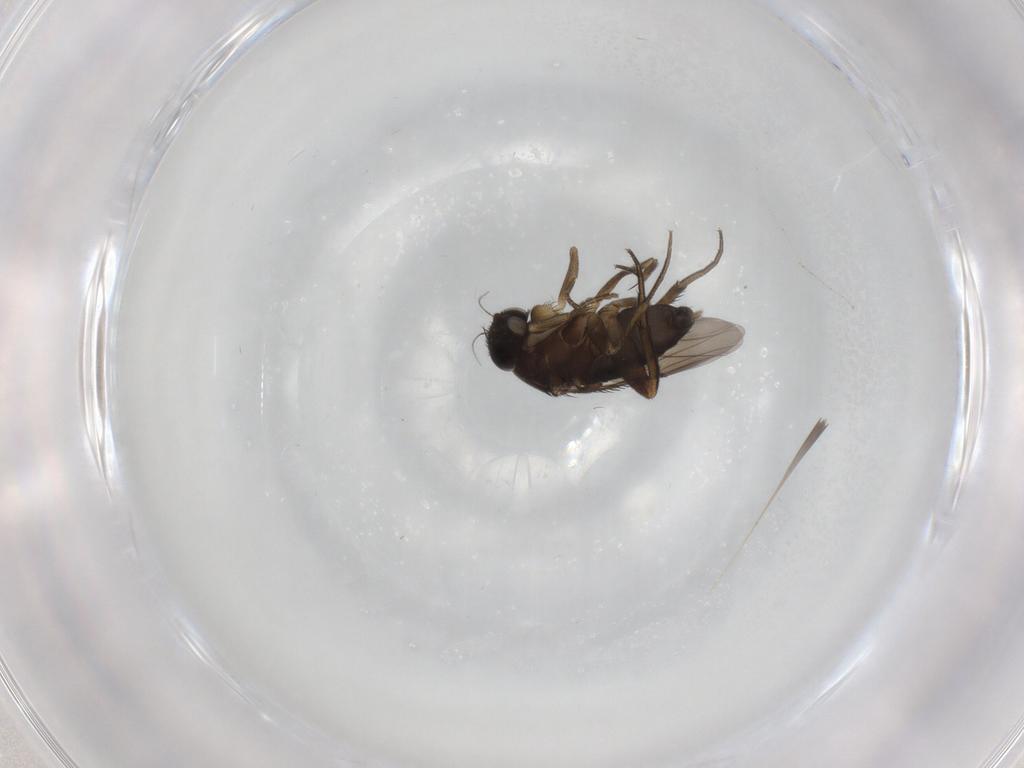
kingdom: Animalia
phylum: Arthropoda
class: Insecta
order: Diptera
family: Phoridae
